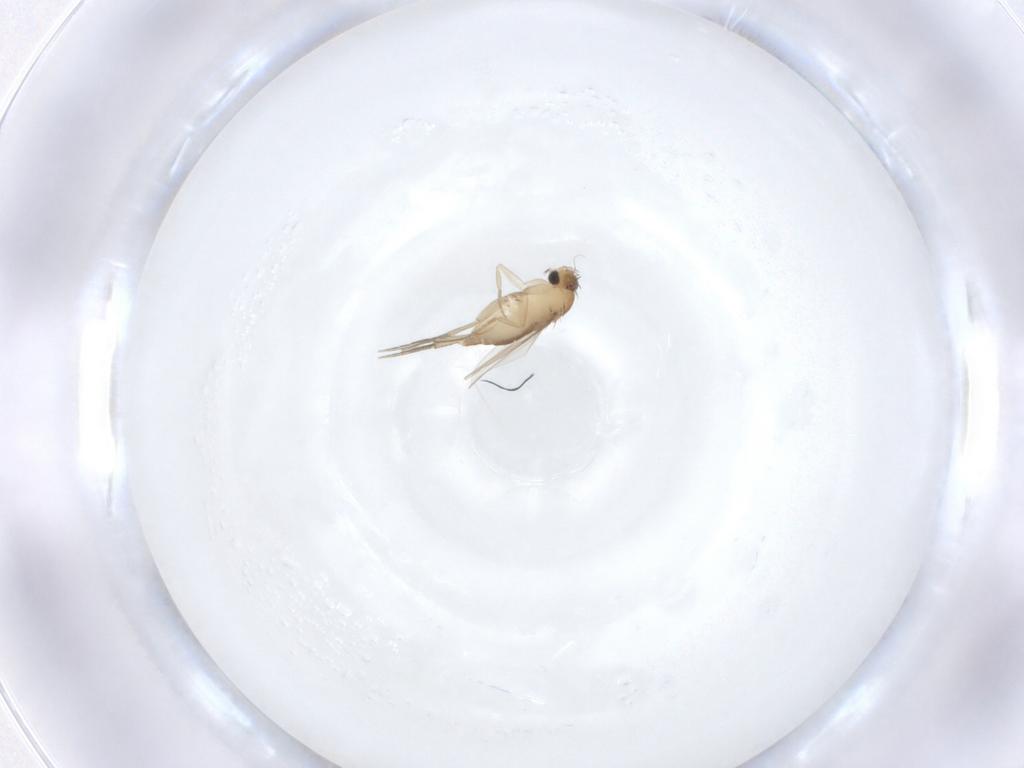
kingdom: Animalia
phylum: Arthropoda
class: Insecta
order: Diptera
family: Phoridae
